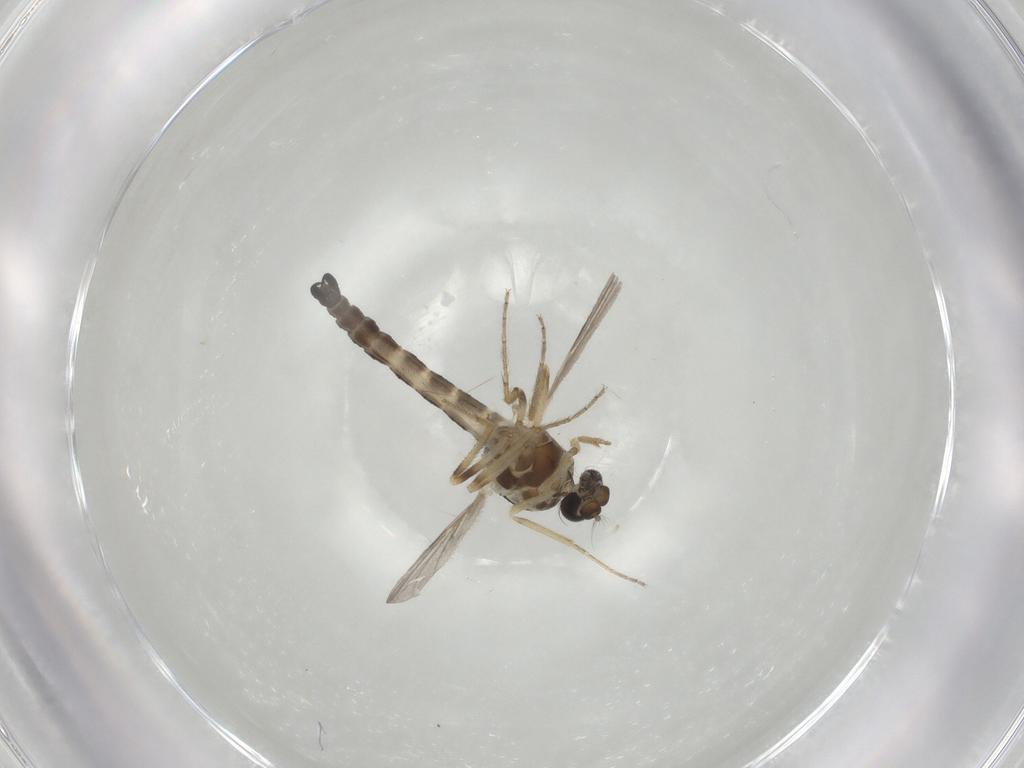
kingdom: Animalia
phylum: Arthropoda
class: Insecta
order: Diptera
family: Ceratopogonidae
